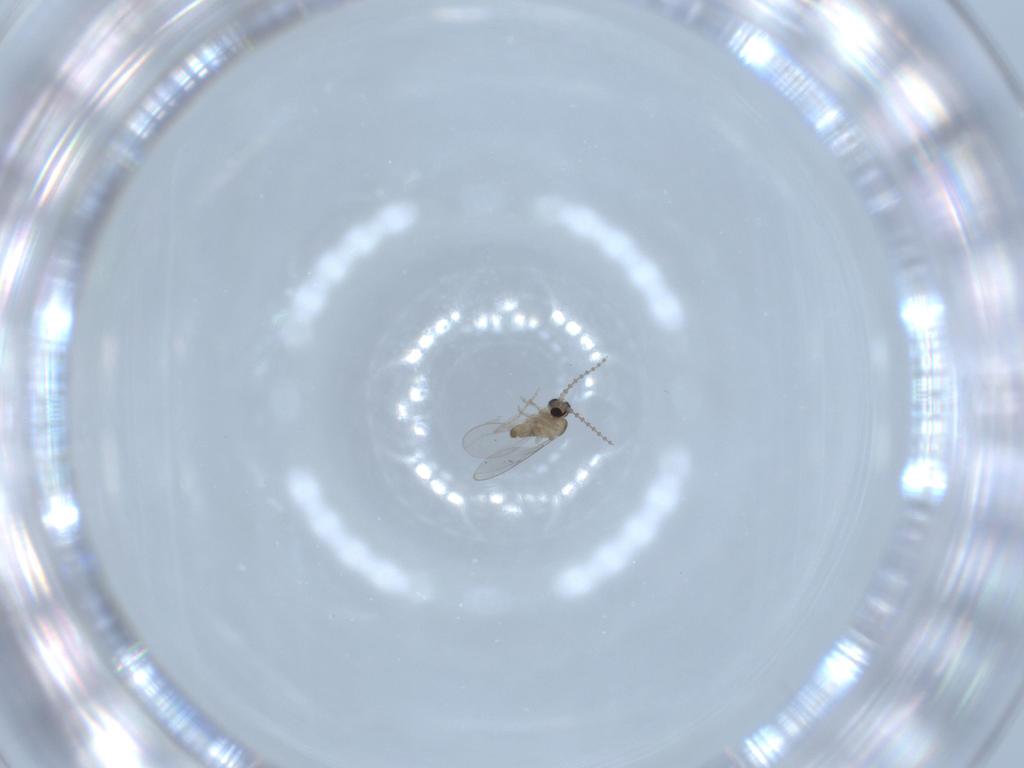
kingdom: Animalia
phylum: Arthropoda
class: Insecta
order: Diptera
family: Cecidomyiidae
